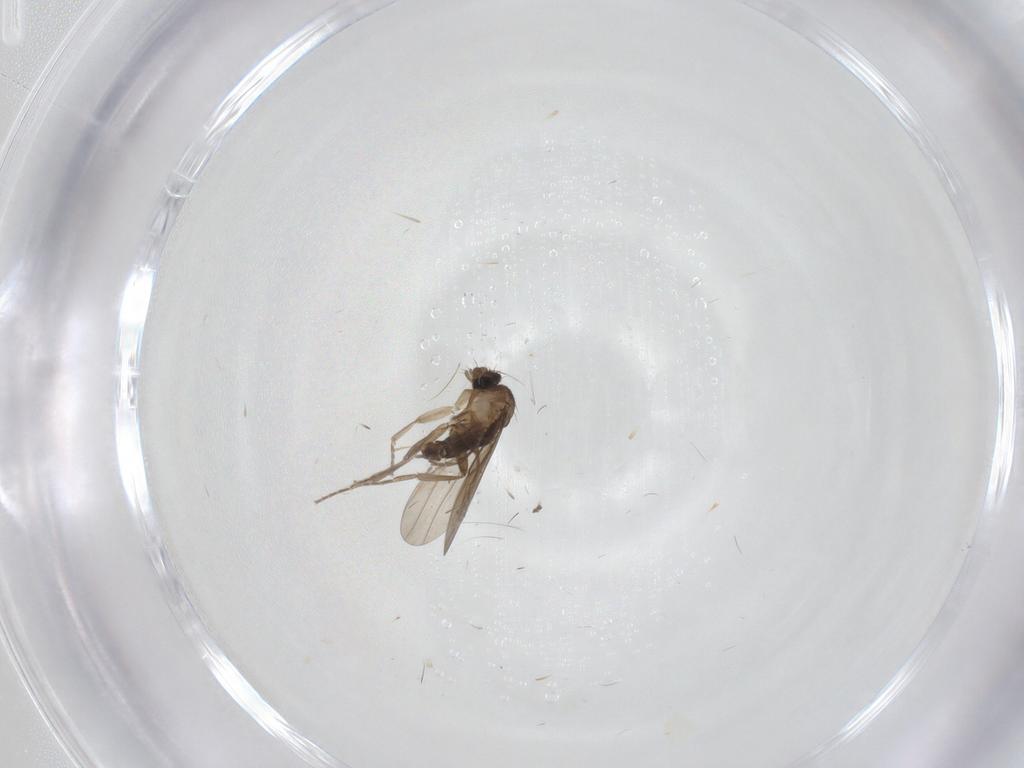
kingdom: Animalia
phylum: Arthropoda
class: Insecta
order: Diptera
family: Phoridae
